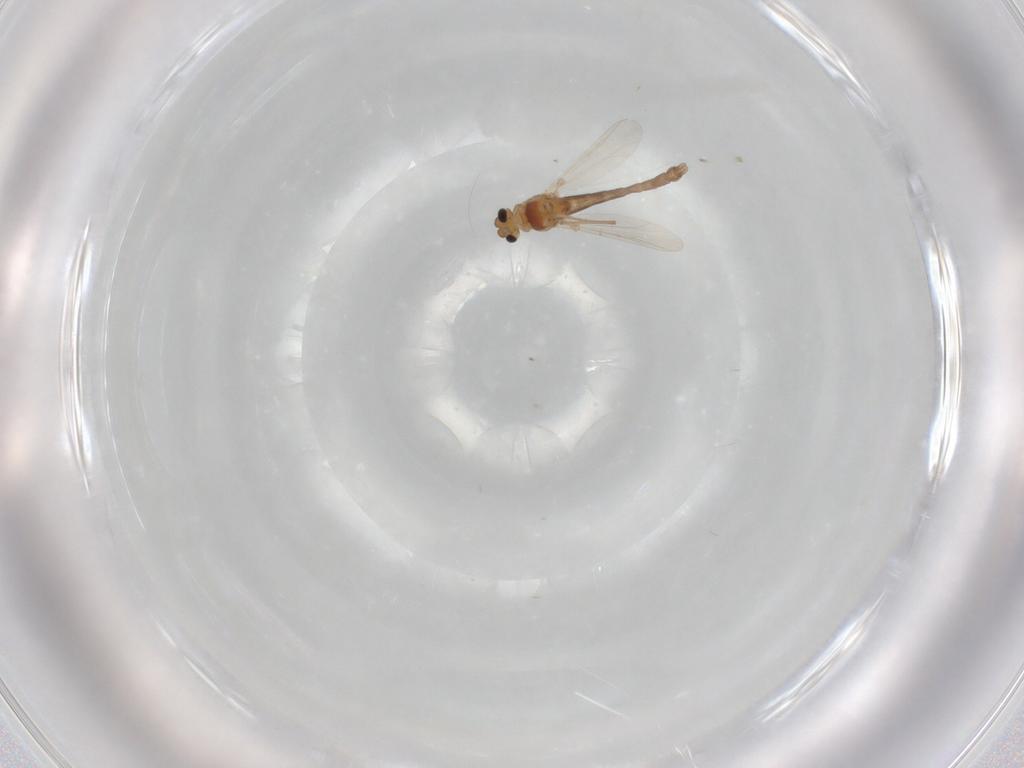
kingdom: Animalia
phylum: Arthropoda
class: Insecta
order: Diptera
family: Chironomidae
